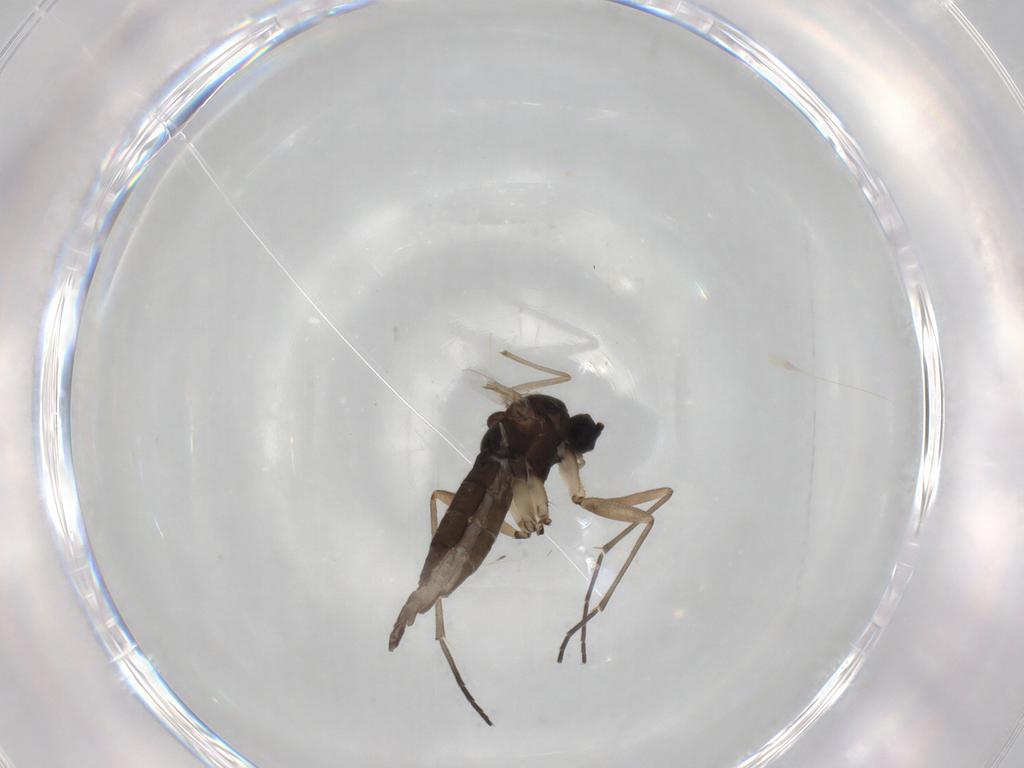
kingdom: Animalia
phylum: Arthropoda
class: Insecta
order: Diptera
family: Sciaridae
